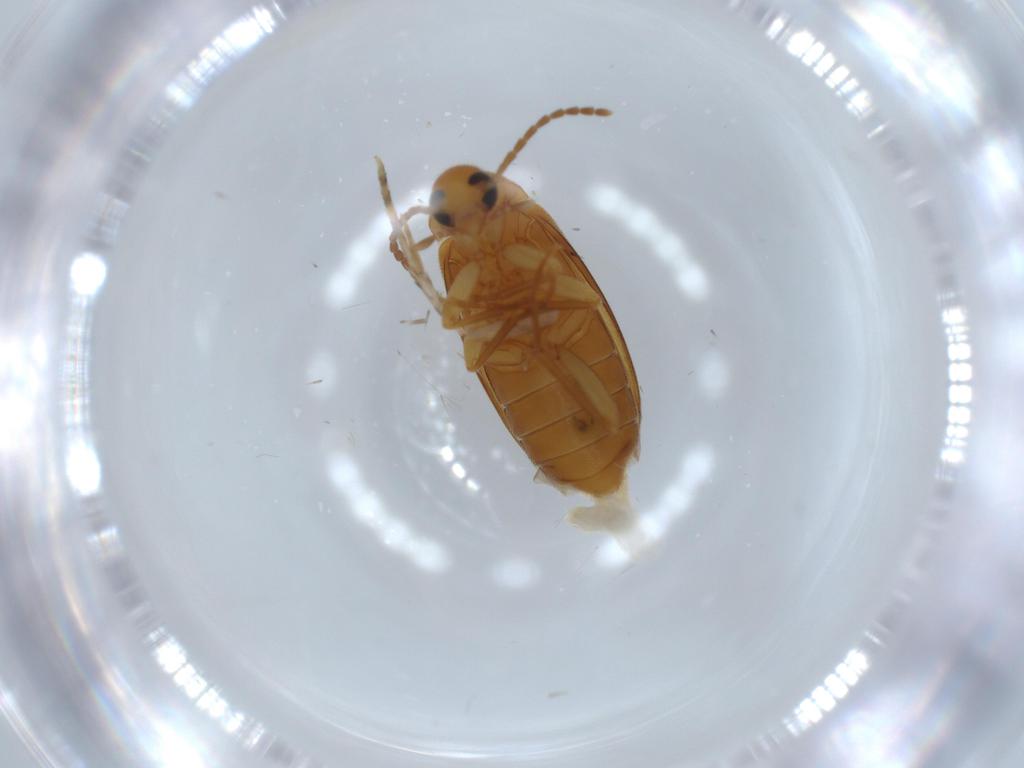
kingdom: Animalia
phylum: Arthropoda
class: Insecta
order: Coleoptera
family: Scraptiidae
